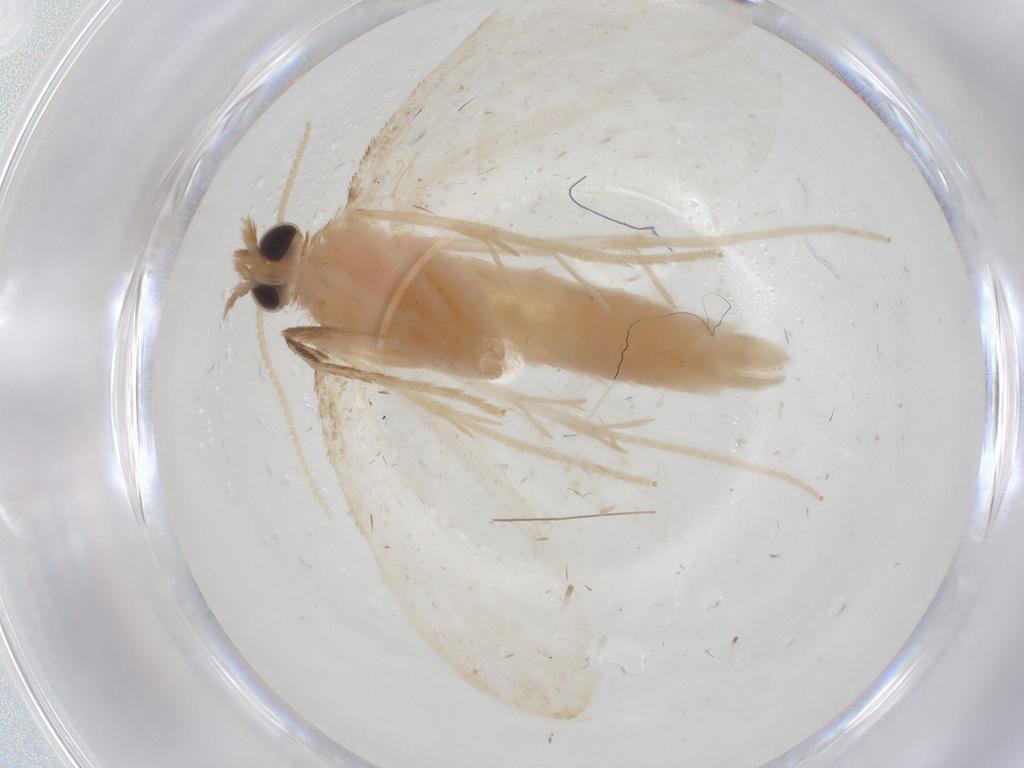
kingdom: Animalia
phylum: Arthropoda
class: Insecta
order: Lepidoptera
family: Crambidae
